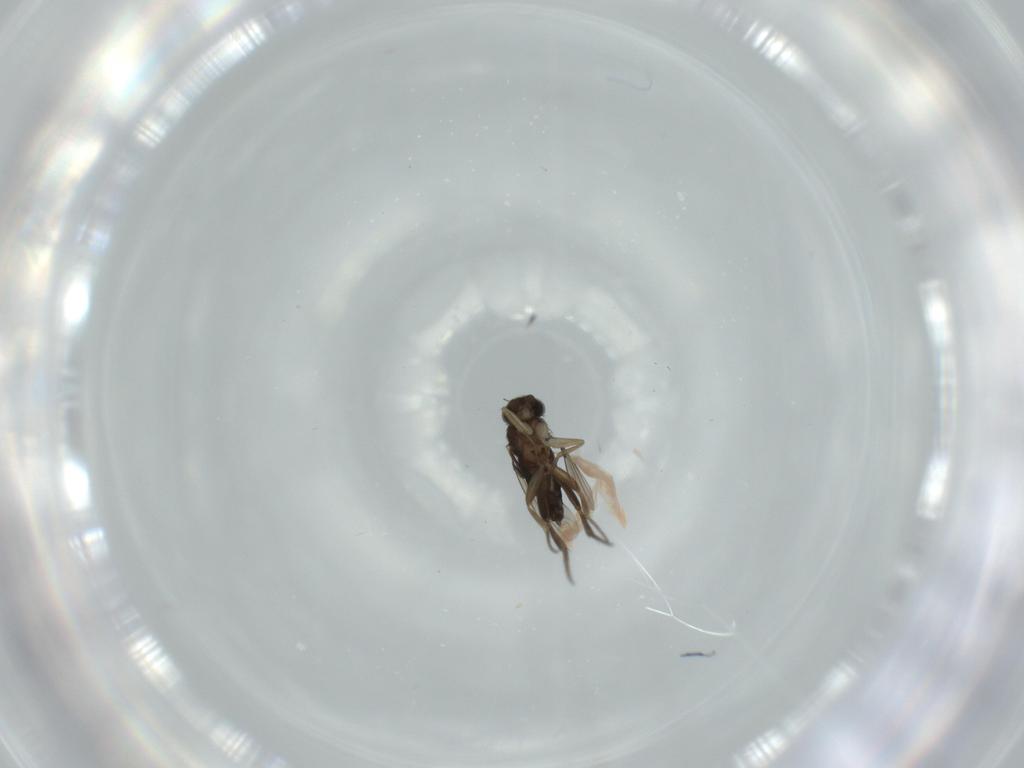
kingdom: Animalia
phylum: Arthropoda
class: Insecta
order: Diptera
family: Phoridae
